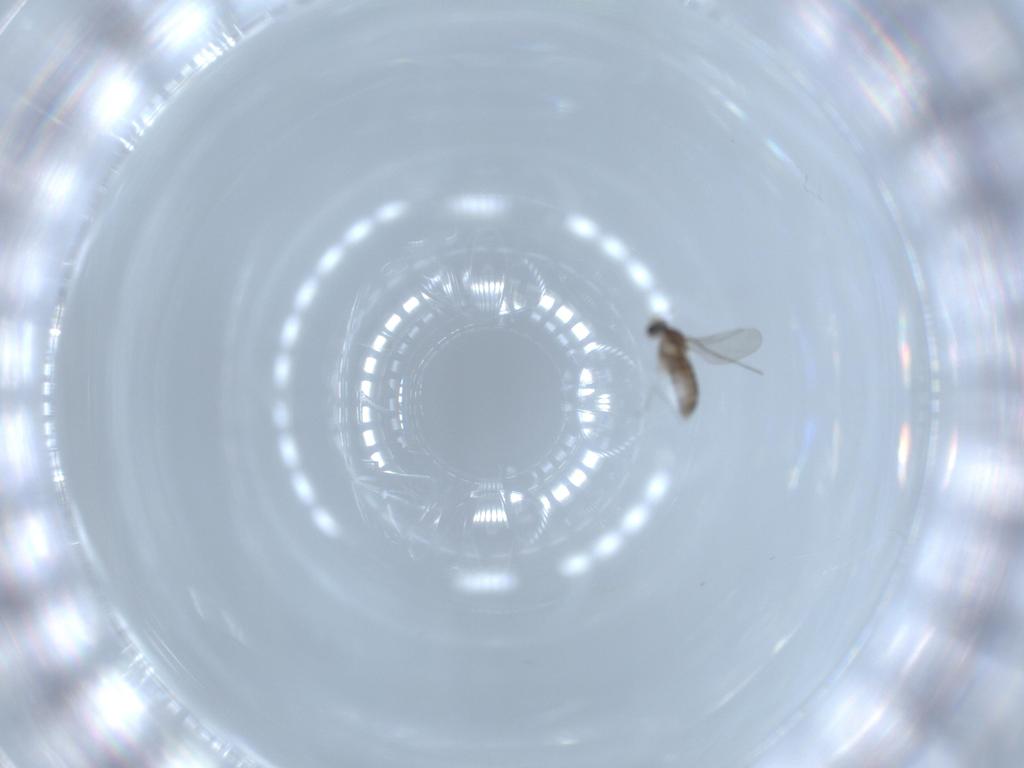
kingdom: Animalia
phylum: Arthropoda
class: Insecta
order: Diptera
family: Cecidomyiidae
